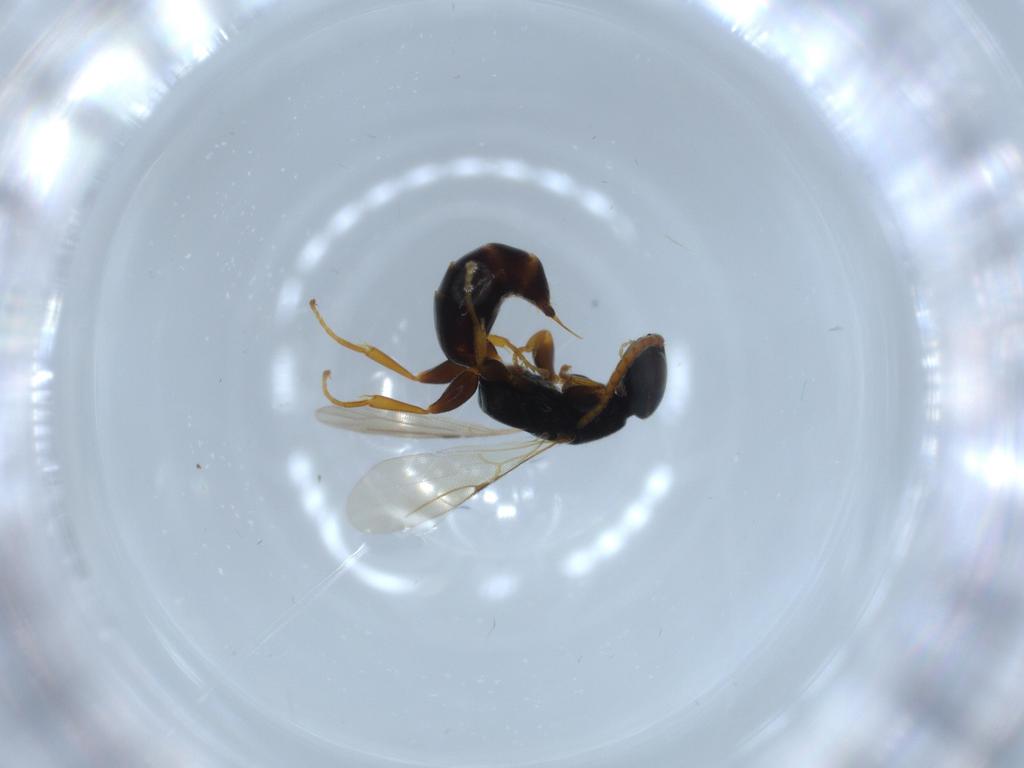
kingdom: Animalia
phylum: Arthropoda
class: Insecta
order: Hymenoptera
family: Bethylidae
